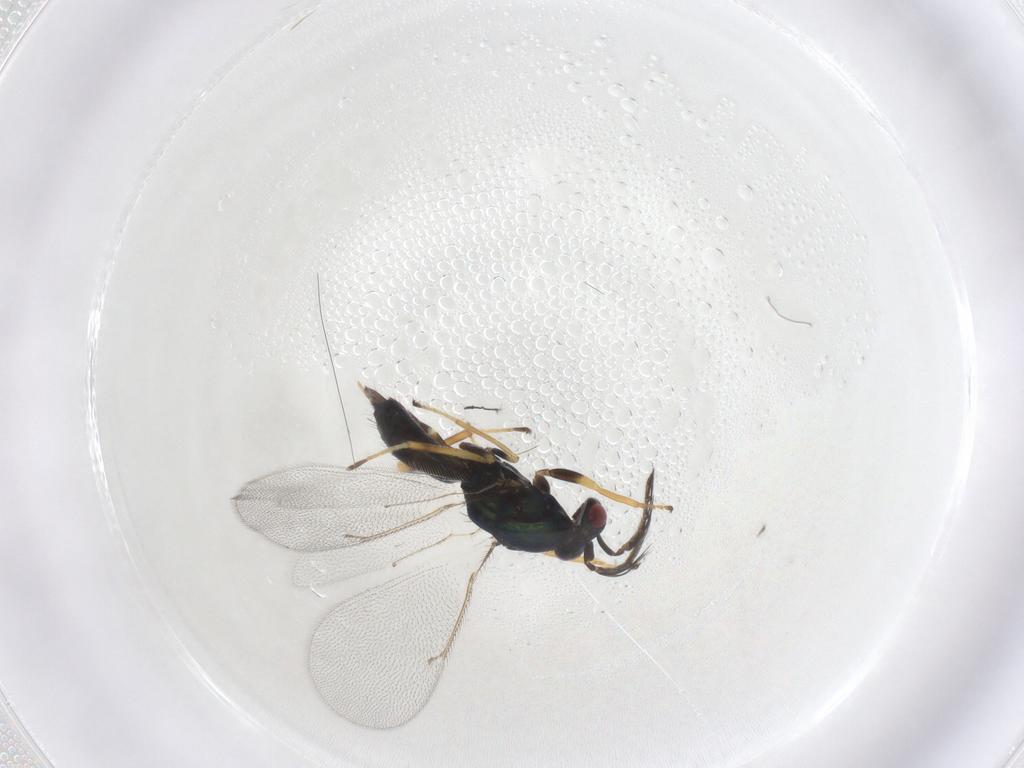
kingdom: Animalia
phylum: Arthropoda
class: Insecta
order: Hymenoptera
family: Eulophidae
